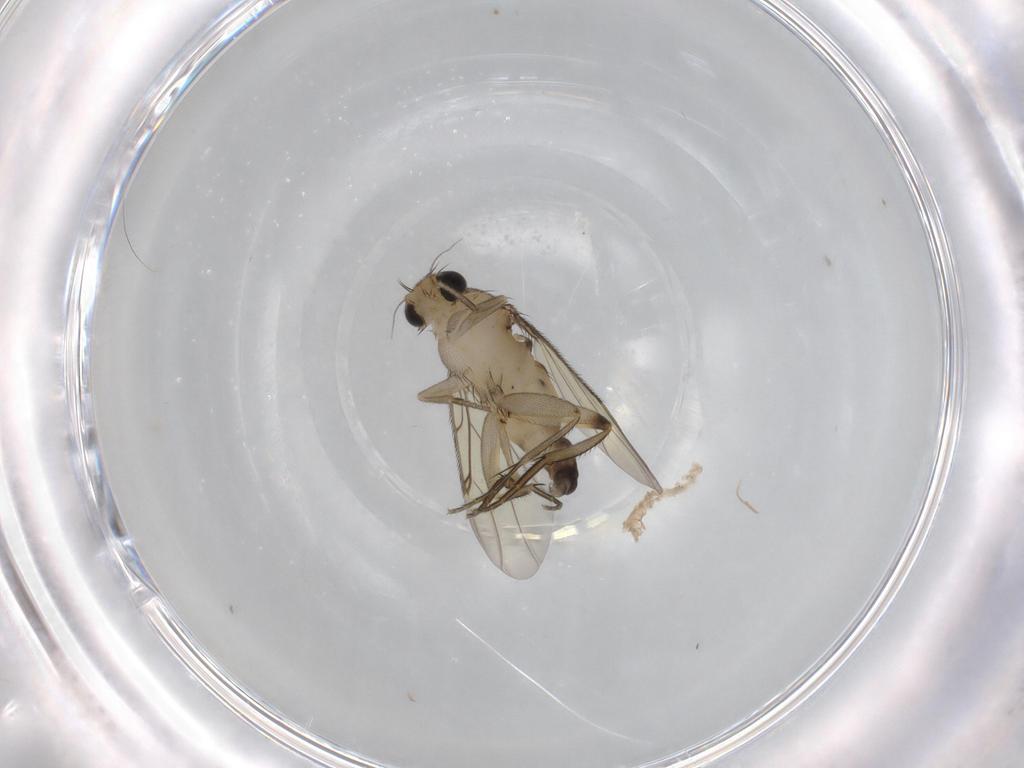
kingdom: Animalia
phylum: Arthropoda
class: Insecta
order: Diptera
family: Phoridae
